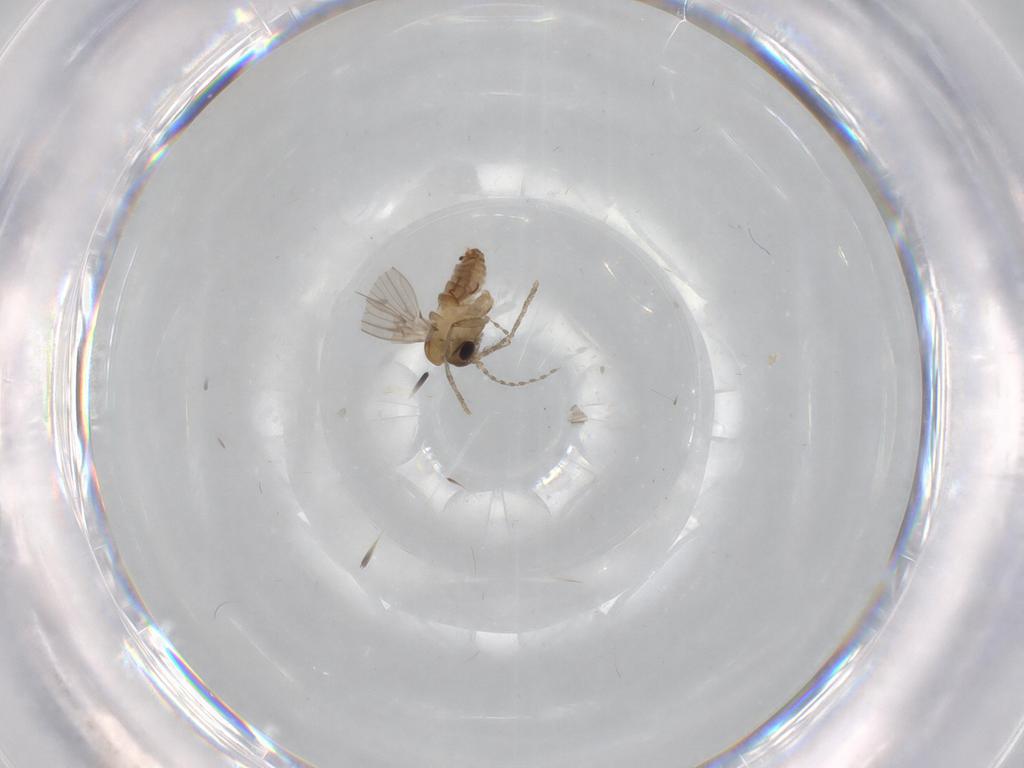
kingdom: Animalia
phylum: Arthropoda
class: Insecta
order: Diptera
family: Psychodidae
